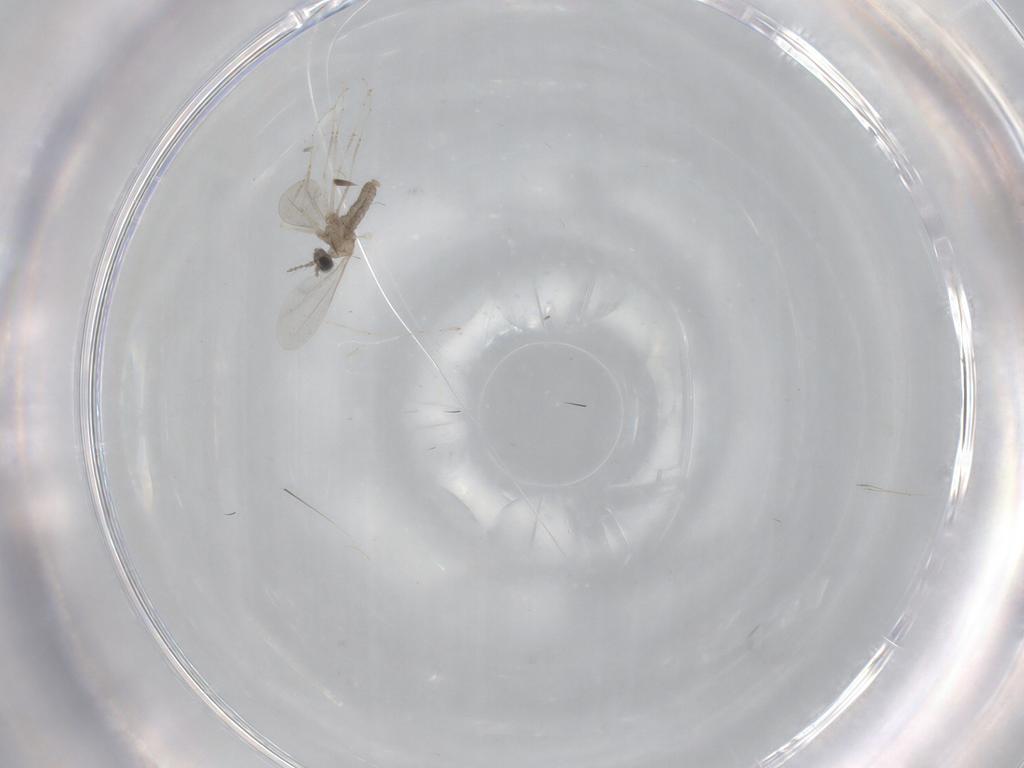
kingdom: Animalia
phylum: Arthropoda
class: Insecta
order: Diptera
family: Cecidomyiidae
